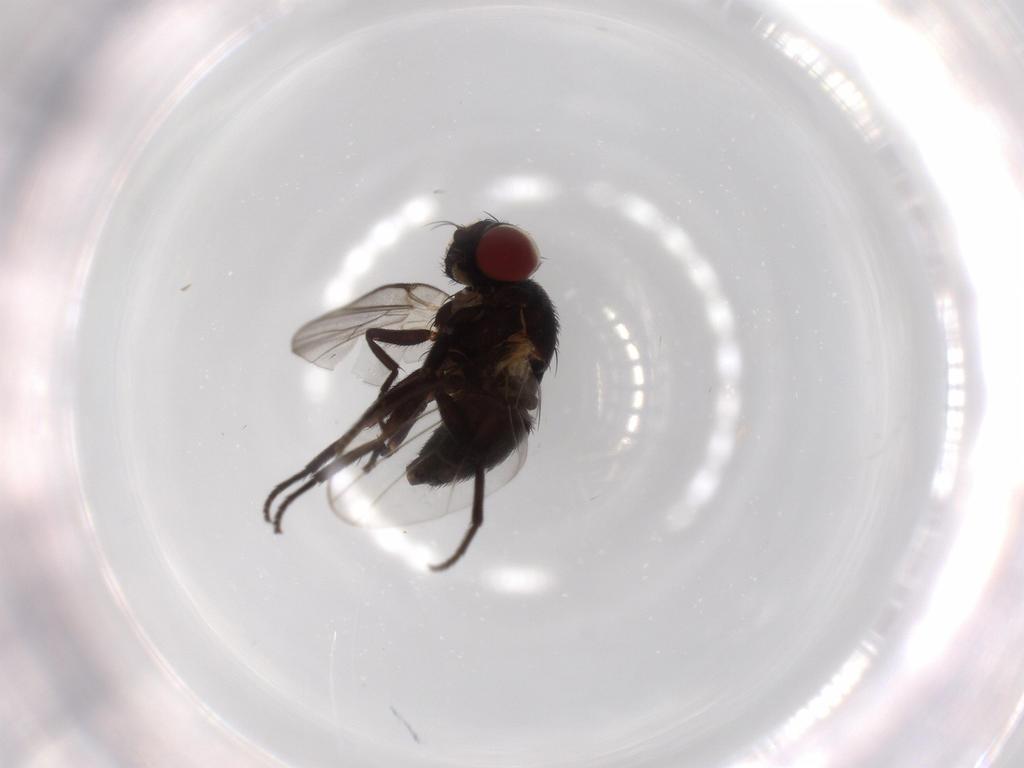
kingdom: Animalia
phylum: Arthropoda
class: Insecta
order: Diptera
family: Agromyzidae
